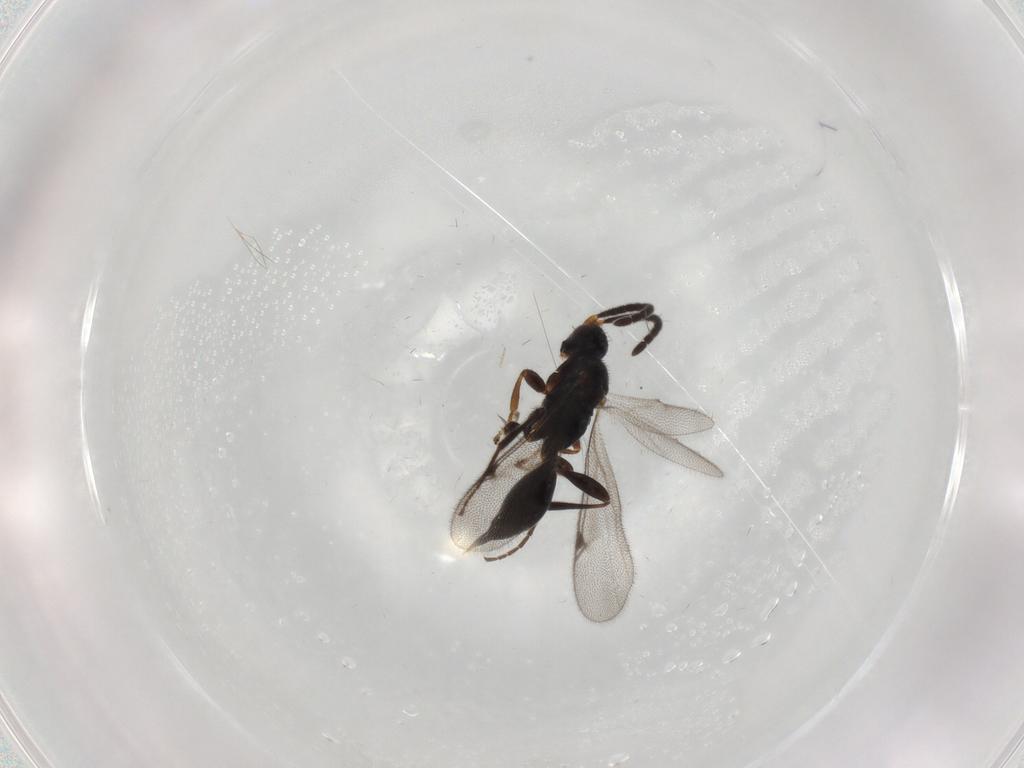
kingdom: Animalia
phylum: Arthropoda
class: Insecta
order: Hymenoptera
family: Proctotrupidae
